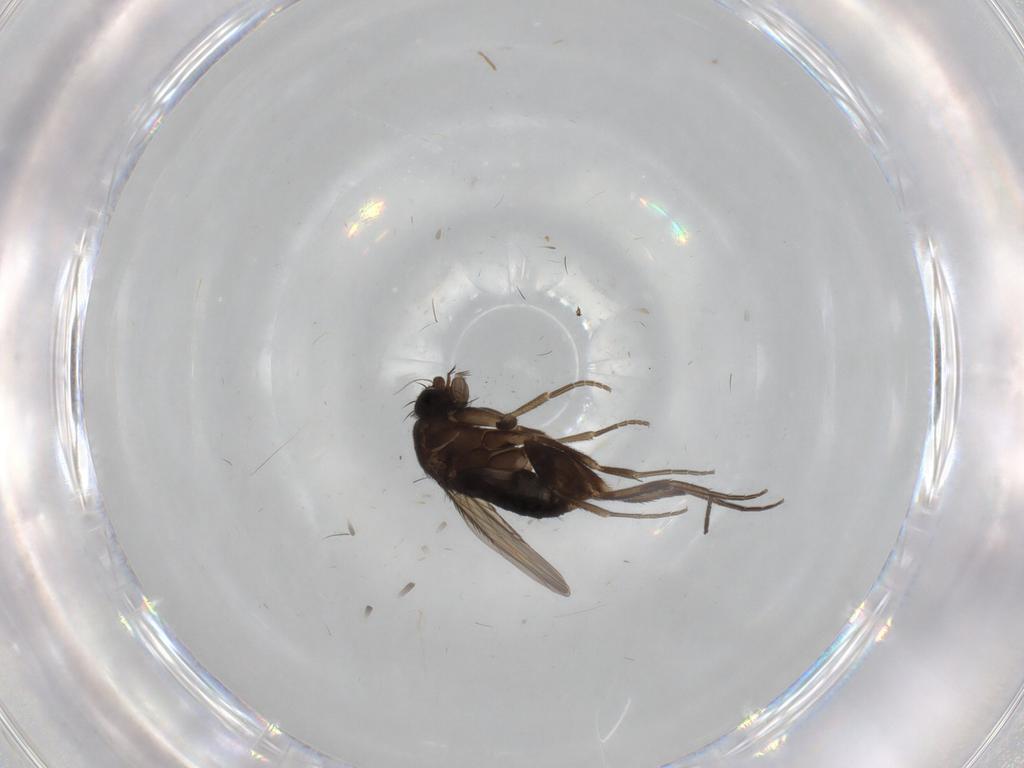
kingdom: Animalia
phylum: Arthropoda
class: Insecta
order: Diptera
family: Phoridae
